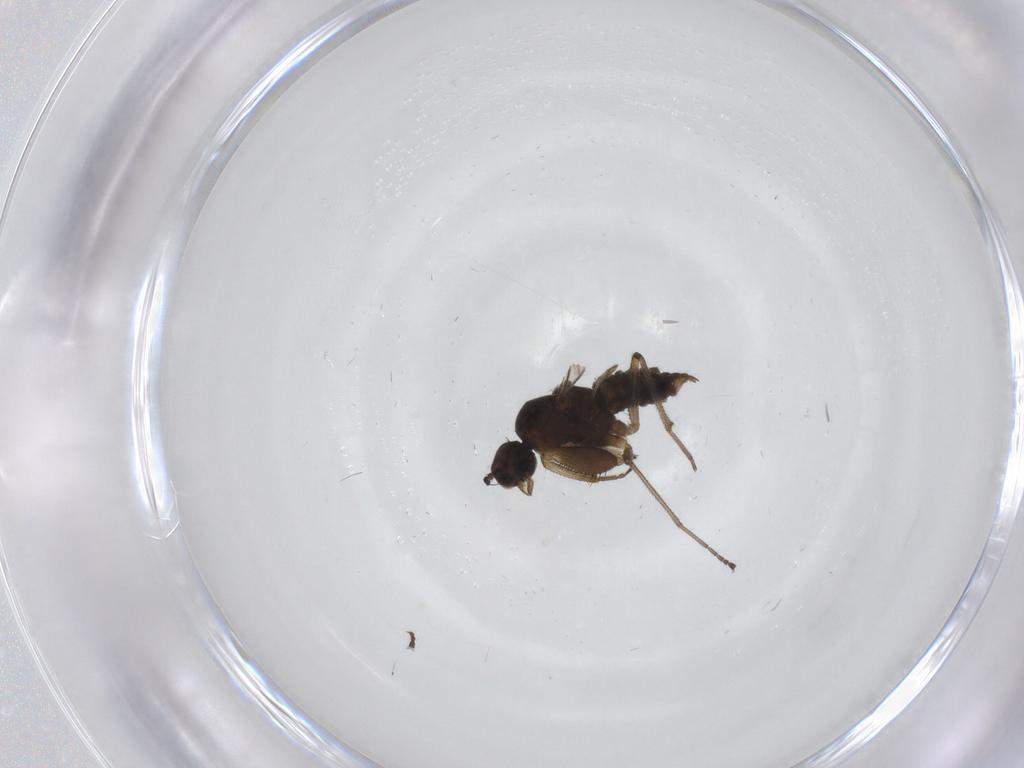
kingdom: Animalia
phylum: Arthropoda
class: Insecta
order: Diptera
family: Empididae
